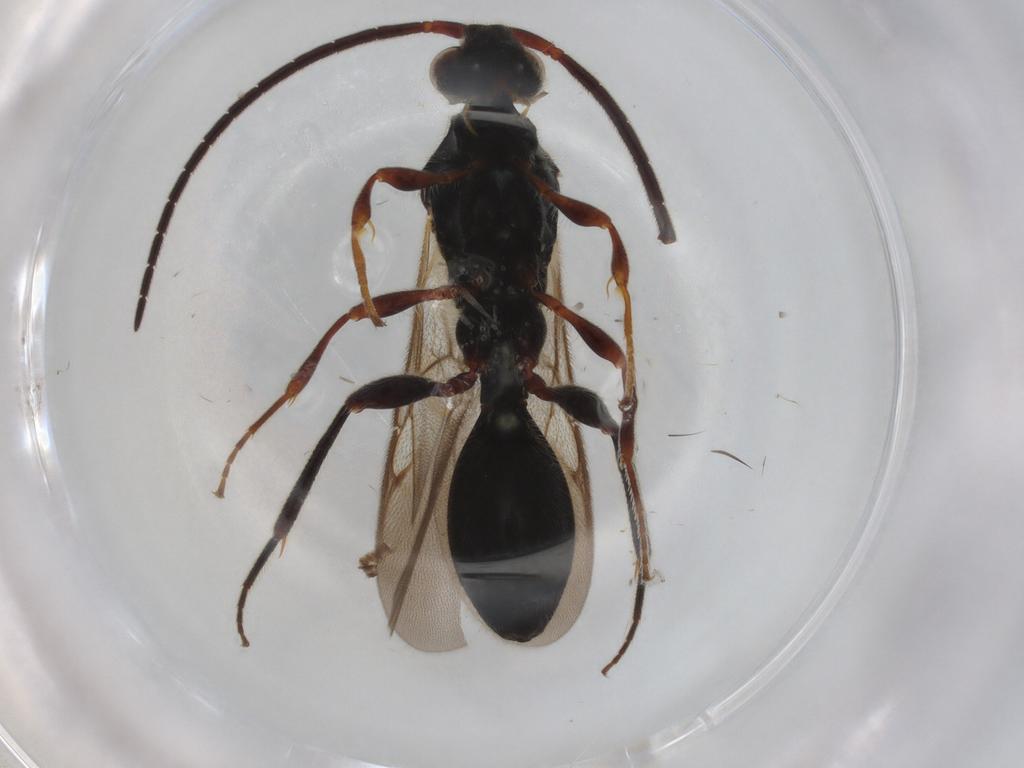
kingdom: Animalia
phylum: Arthropoda
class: Insecta
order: Hymenoptera
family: Diapriidae
